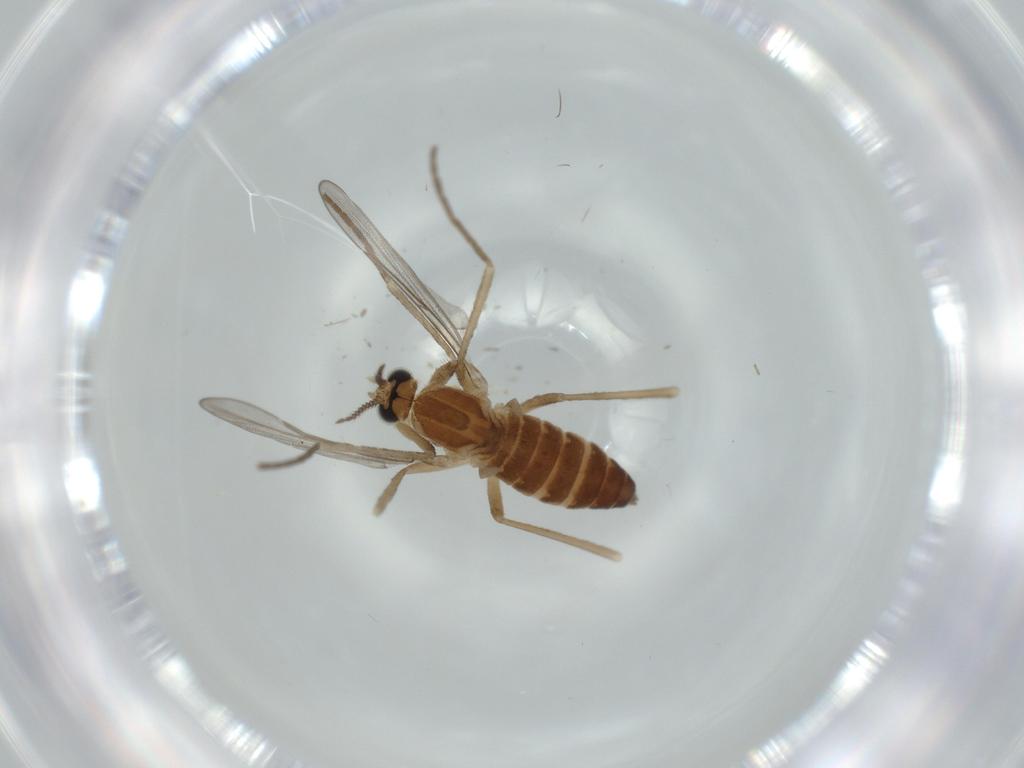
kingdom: Animalia
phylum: Arthropoda
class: Insecta
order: Diptera
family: Cecidomyiidae
